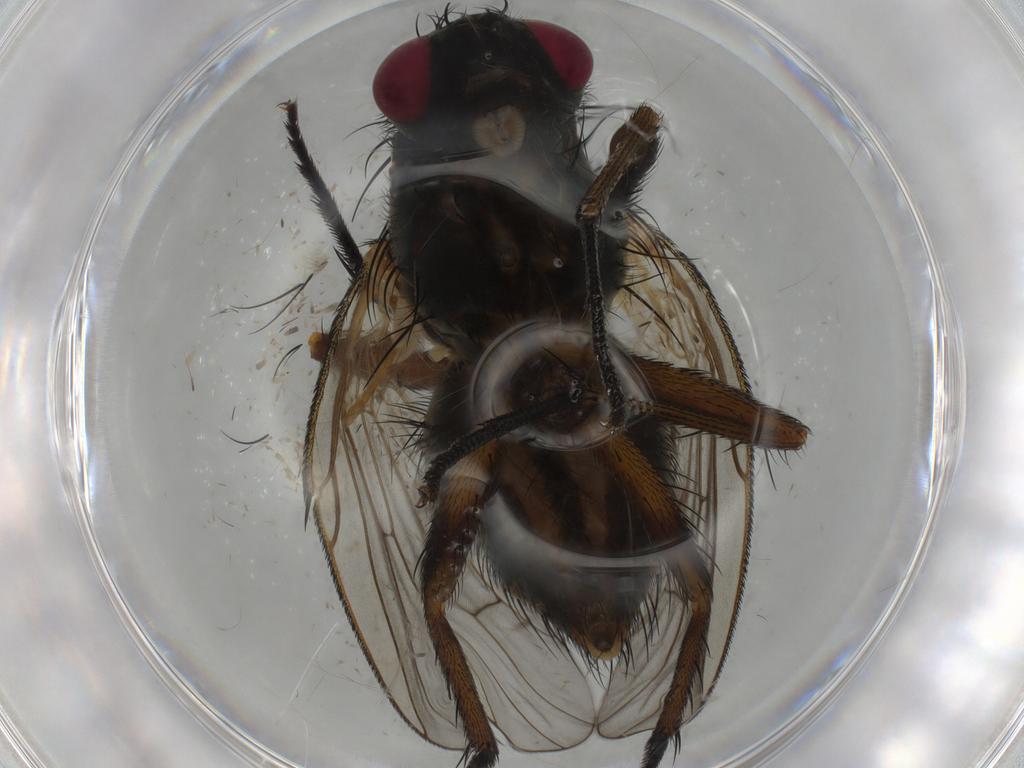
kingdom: Animalia
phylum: Arthropoda
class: Insecta
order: Diptera
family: Muscidae
